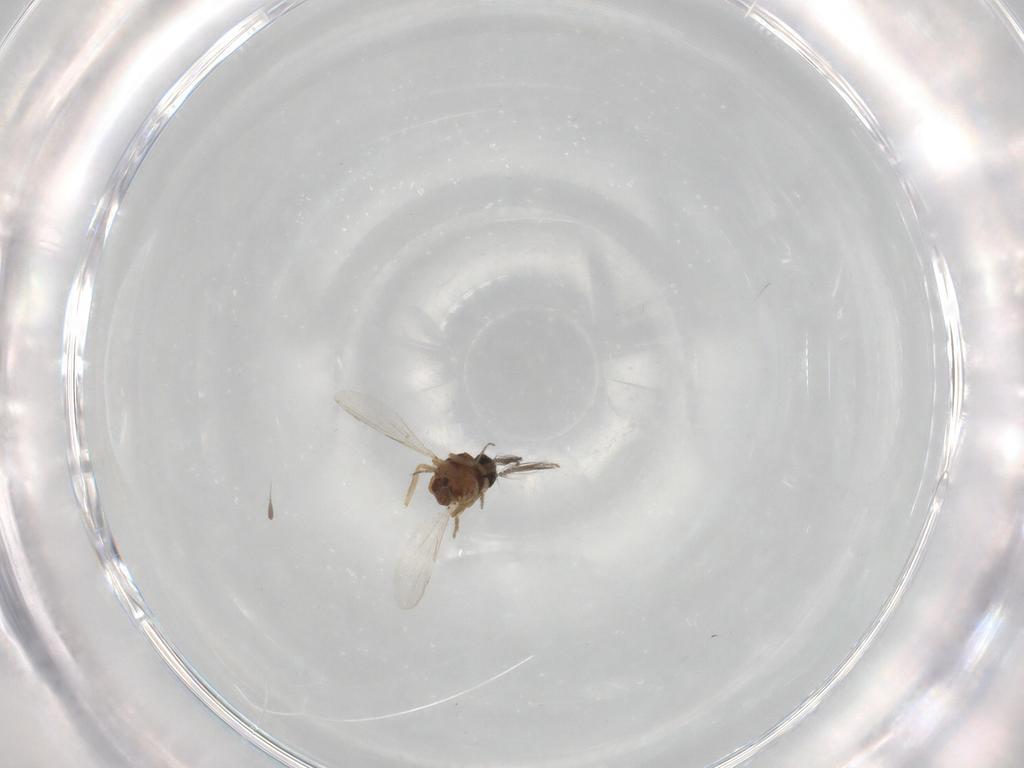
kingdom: Animalia
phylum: Arthropoda
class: Insecta
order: Diptera
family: Ceratopogonidae
